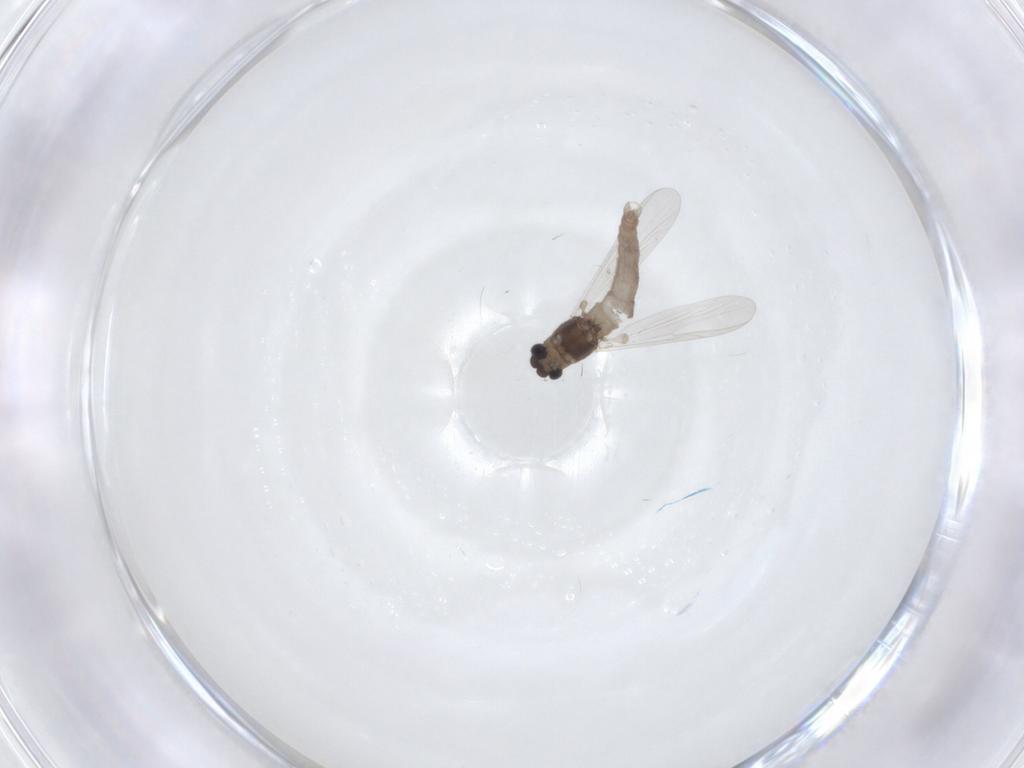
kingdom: Animalia
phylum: Arthropoda
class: Insecta
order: Diptera
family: Chironomidae
